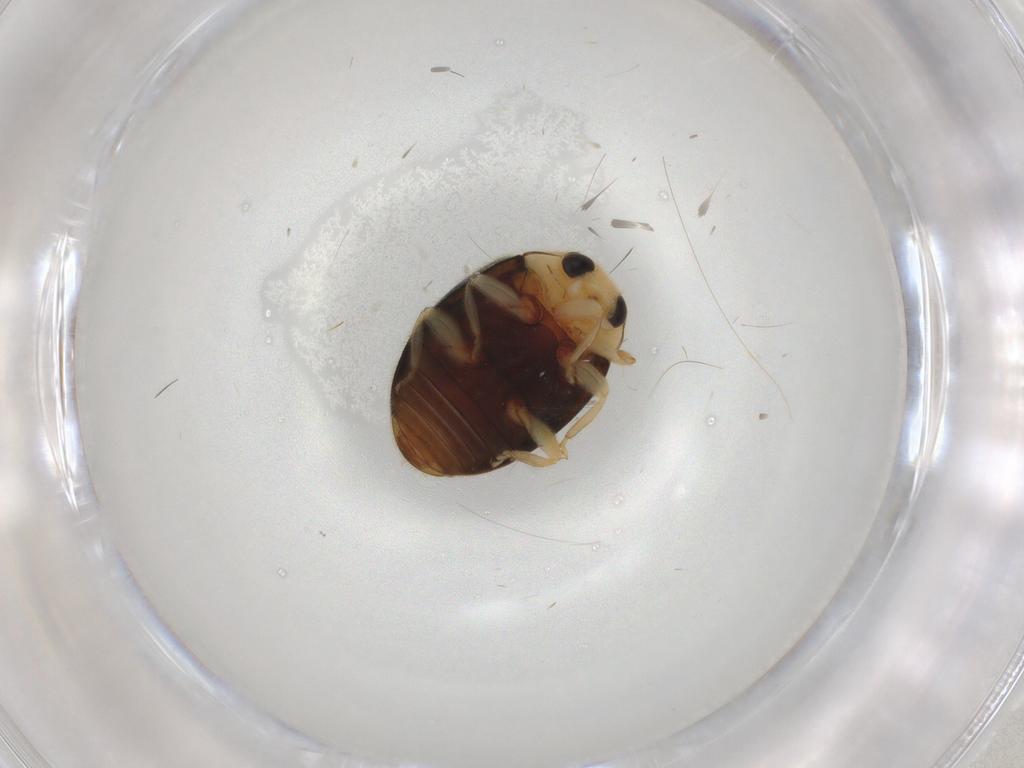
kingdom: Animalia
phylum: Arthropoda
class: Insecta
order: Coleoptera
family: Coccinellidae
